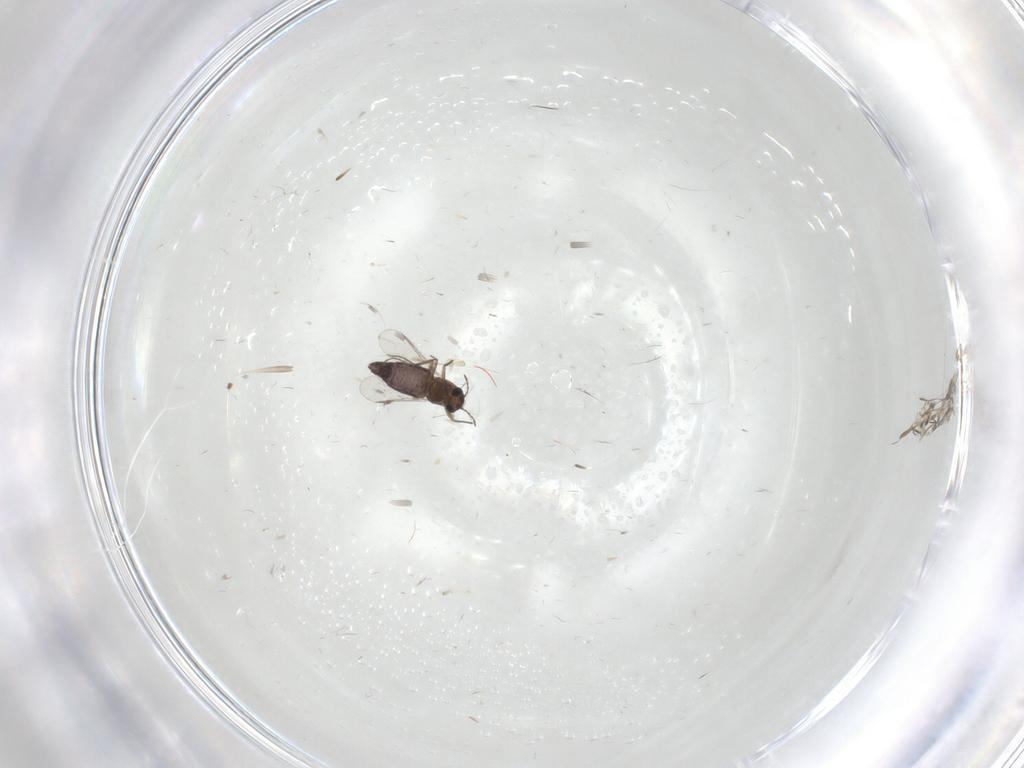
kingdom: Animalia
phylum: Arthropoda
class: Insecta
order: Diptera
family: Chironomidae
